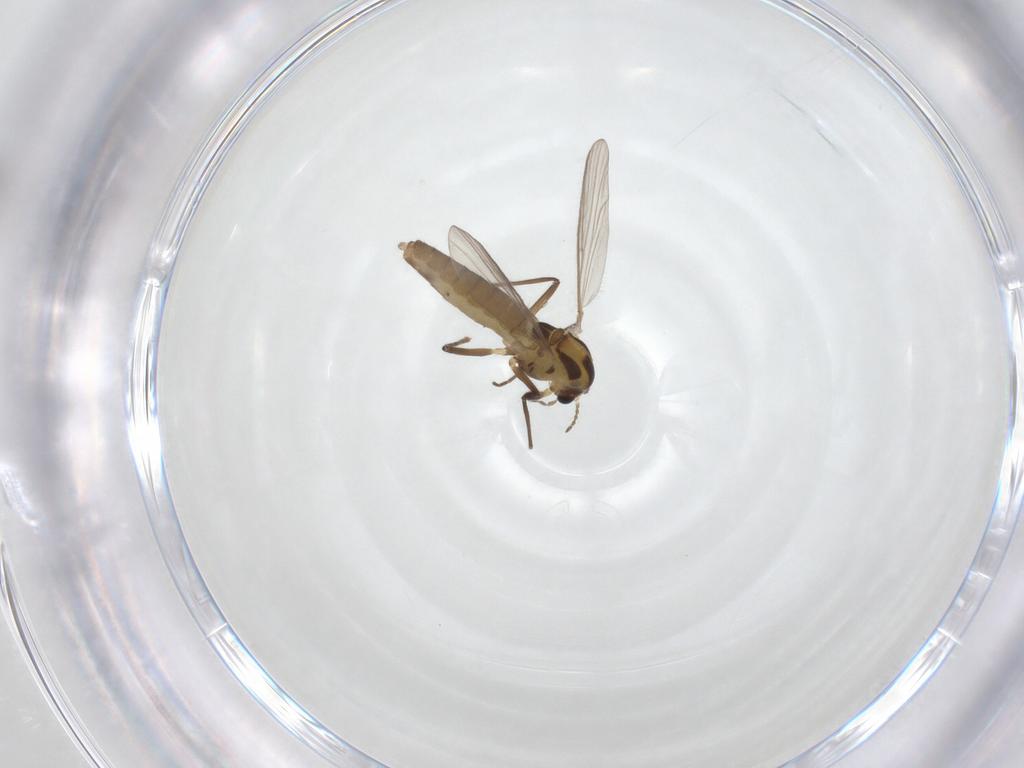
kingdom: Animalia
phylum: Arthropoda
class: Insecta
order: Diptera
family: Chironomidae
